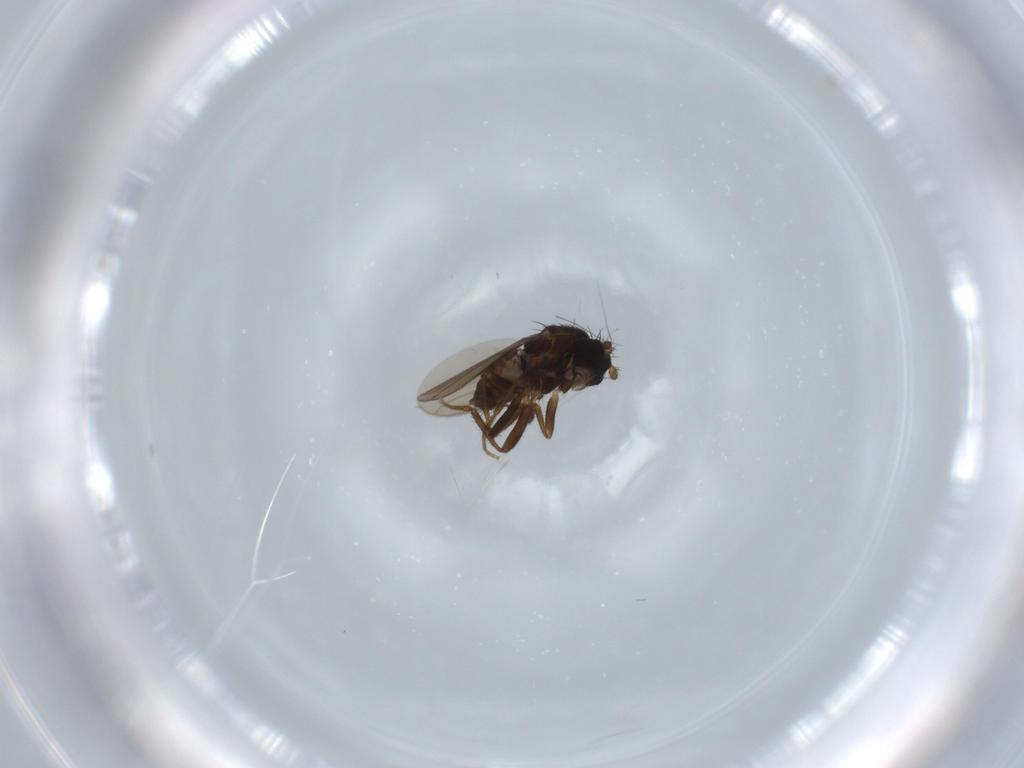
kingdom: Animalia
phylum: Arthropoda
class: Insecta
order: Diptera
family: Sphaeroceridae
